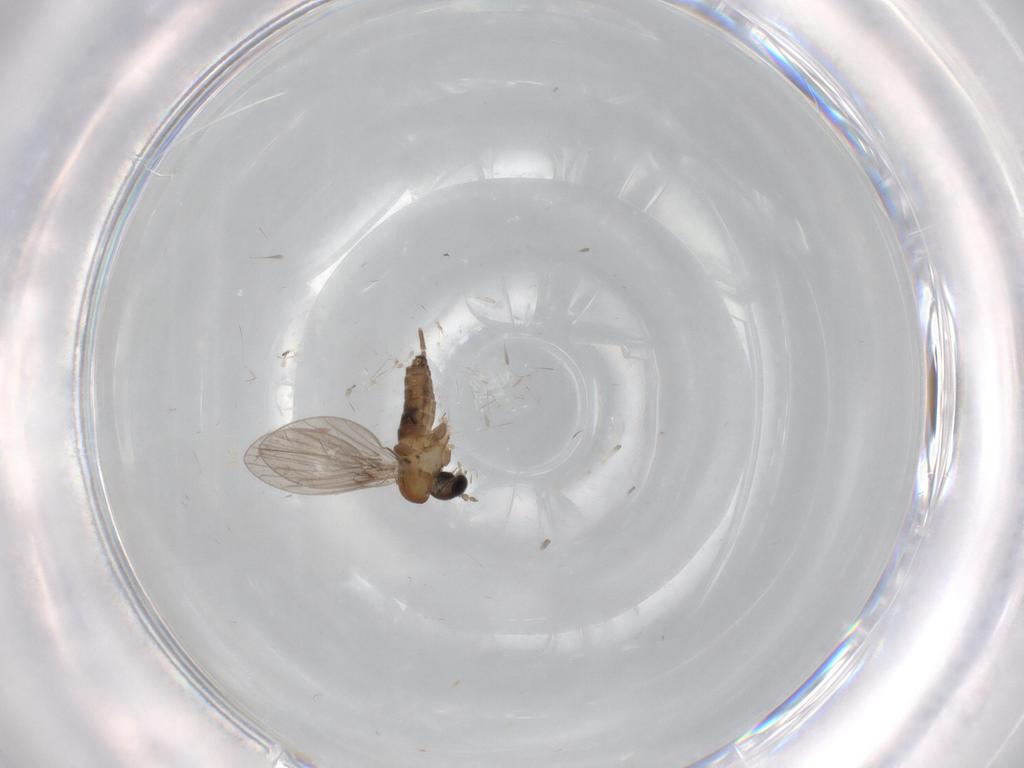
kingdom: Animalia
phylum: Arthropoda
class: Insecta
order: Diptera
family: Psychodidae
